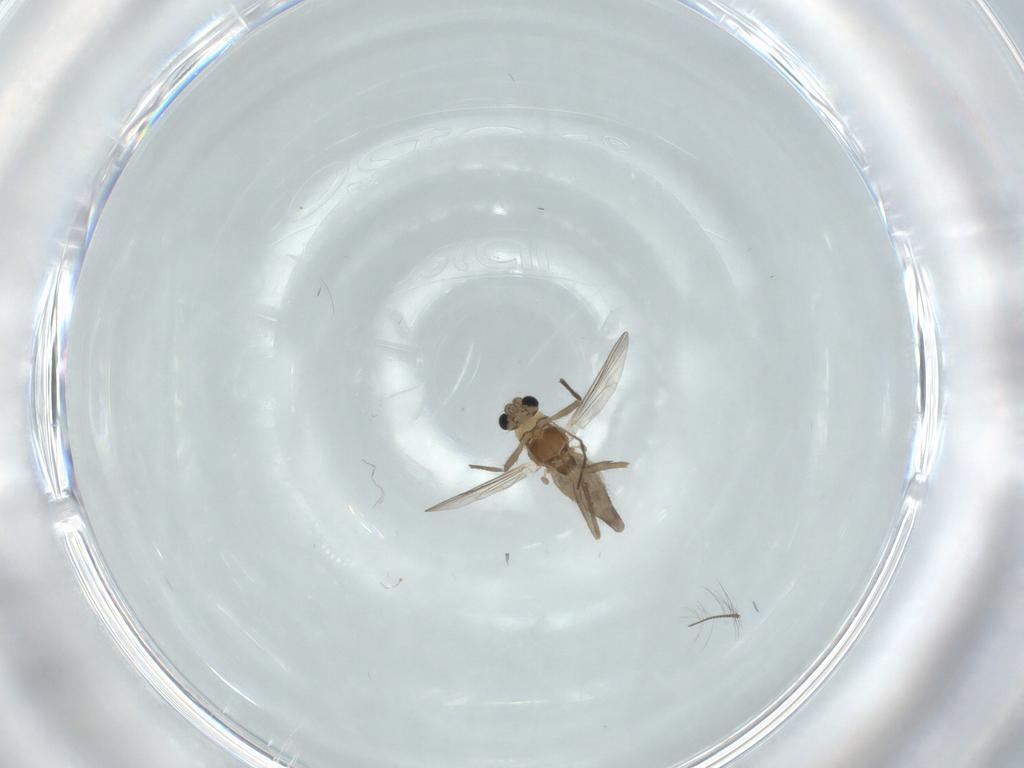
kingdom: Animalia
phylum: Arthropoda
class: Insecta
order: Diptera
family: Chironomidae
